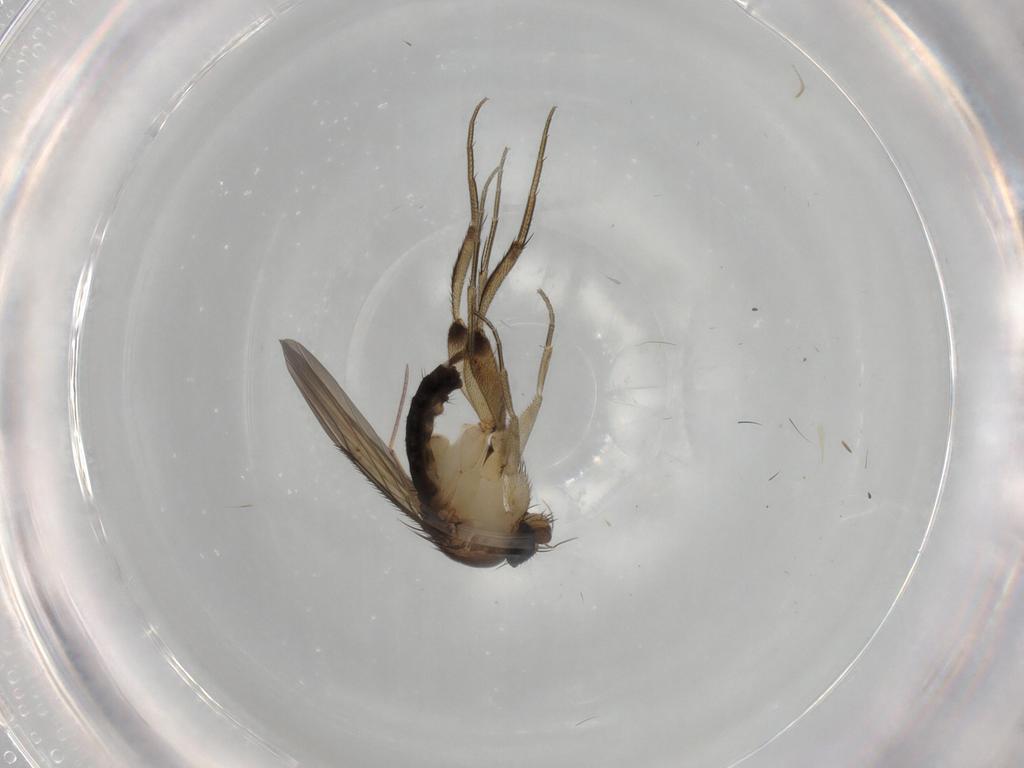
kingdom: Animalia
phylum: Arthropoda
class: Insecta
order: Diptera
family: Phoridae
